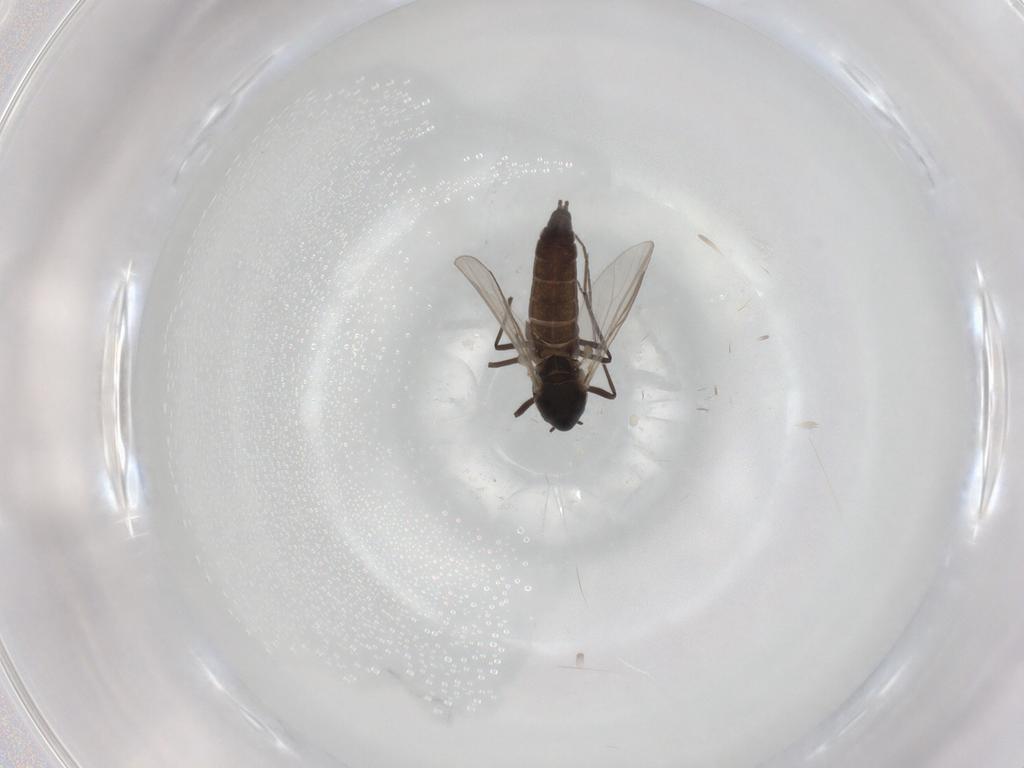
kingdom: Animalia
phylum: Arthropoda
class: Insecta
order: Diptera
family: Chironomidae
